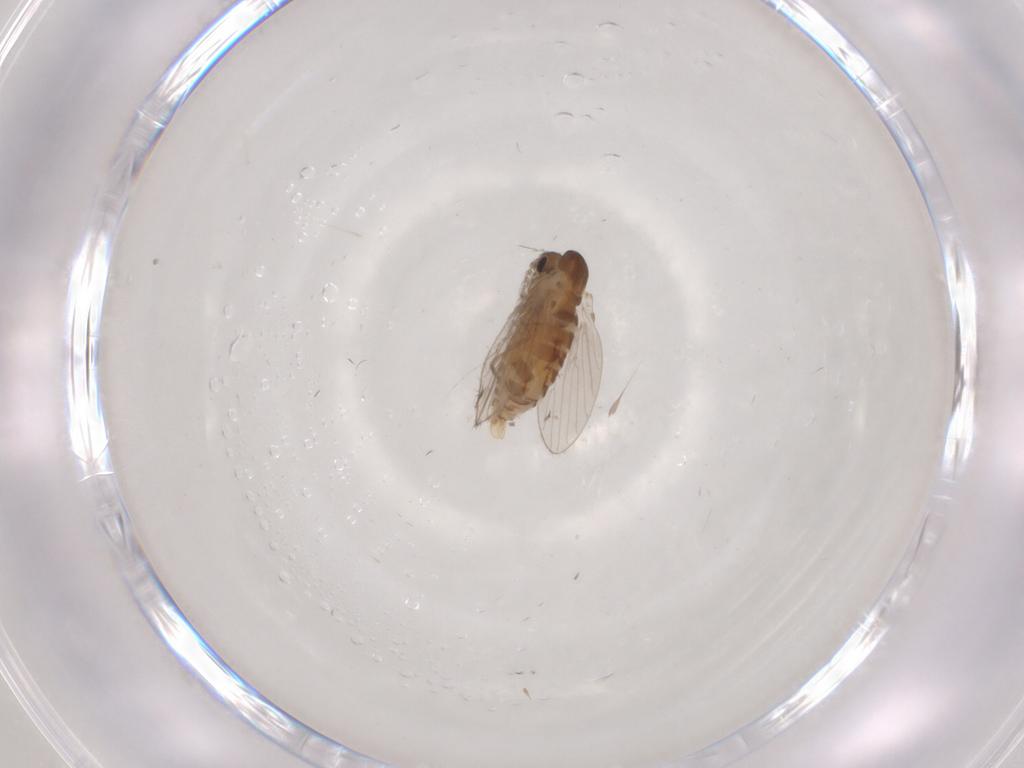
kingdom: Animalia
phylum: Arthropoda
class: Insecta
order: Diptera
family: Psychodidae
